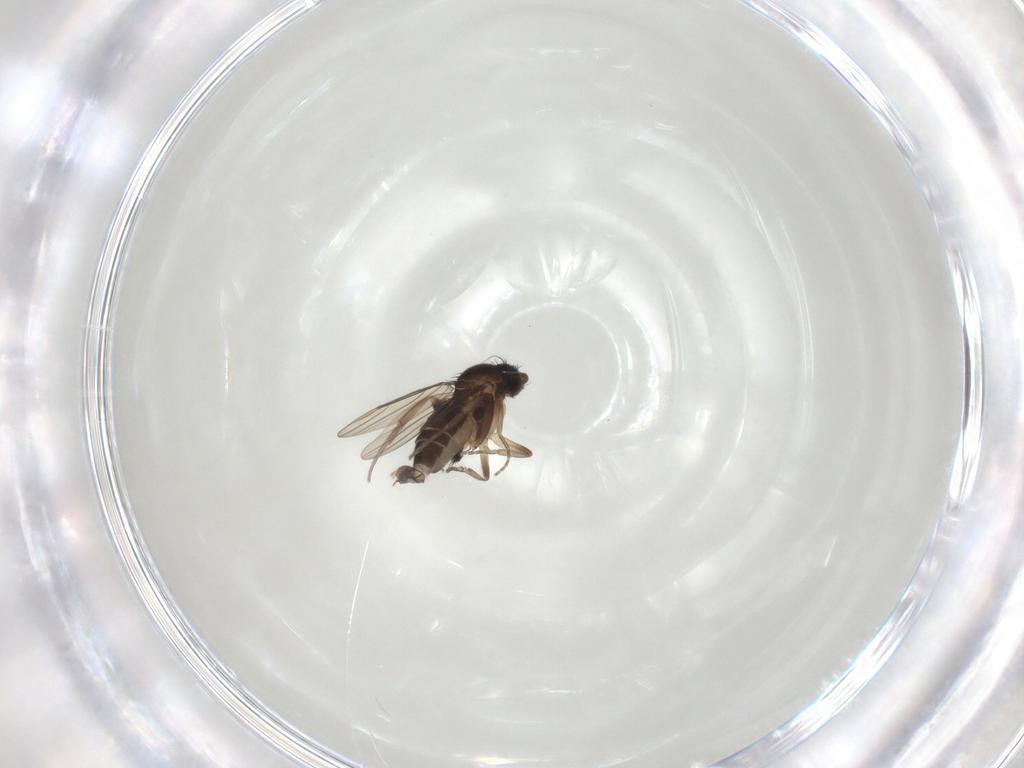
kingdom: Animalia
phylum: Arthropoda
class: Insecta
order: Diptera
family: Phoridae
